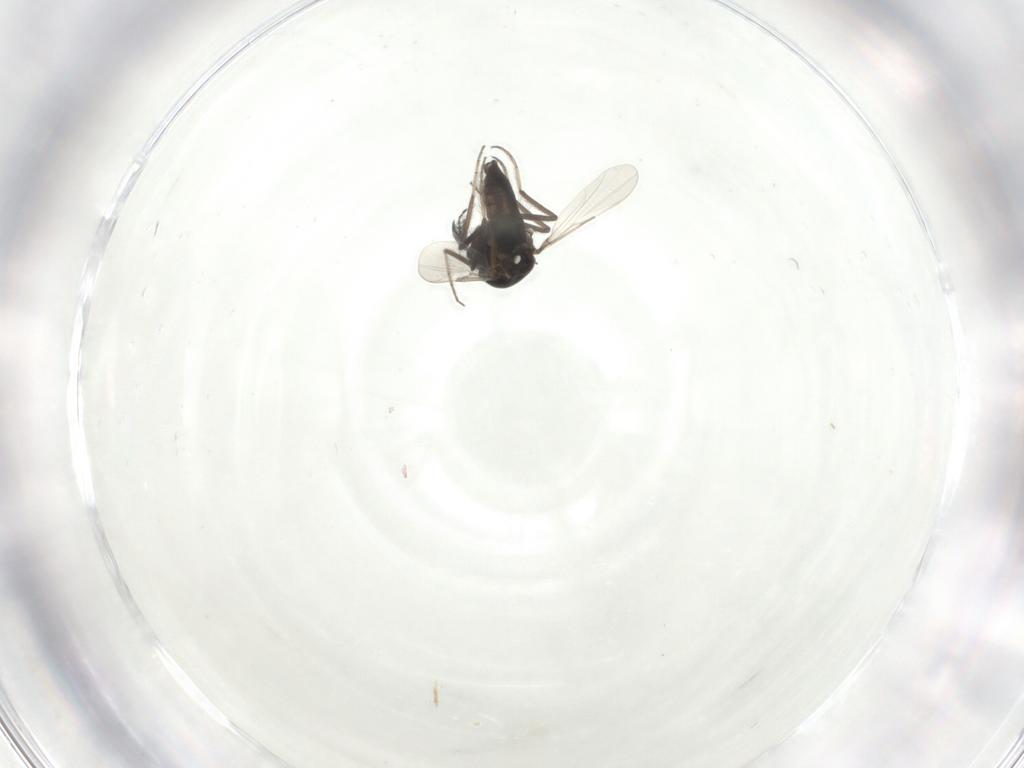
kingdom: Animalia
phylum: Arthropoda
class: Insecta
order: Diptera
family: Ceratopogonidae
